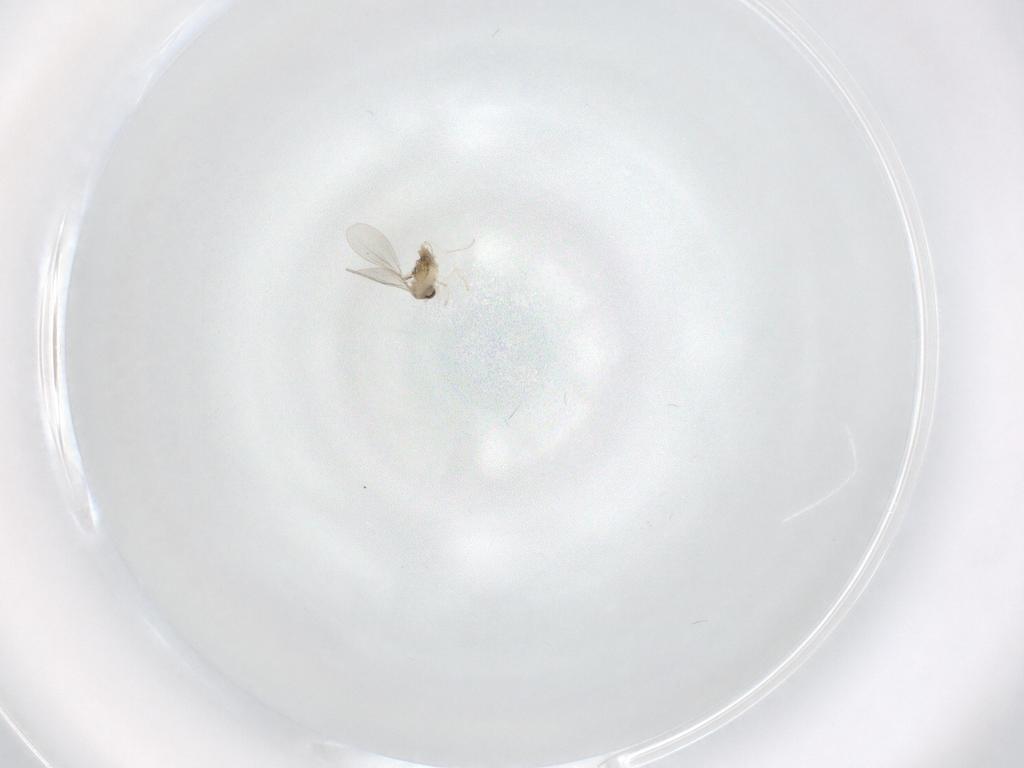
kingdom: Animalia
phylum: Arthropoda
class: Insecta
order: Diptera
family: Cecidomyiidae
